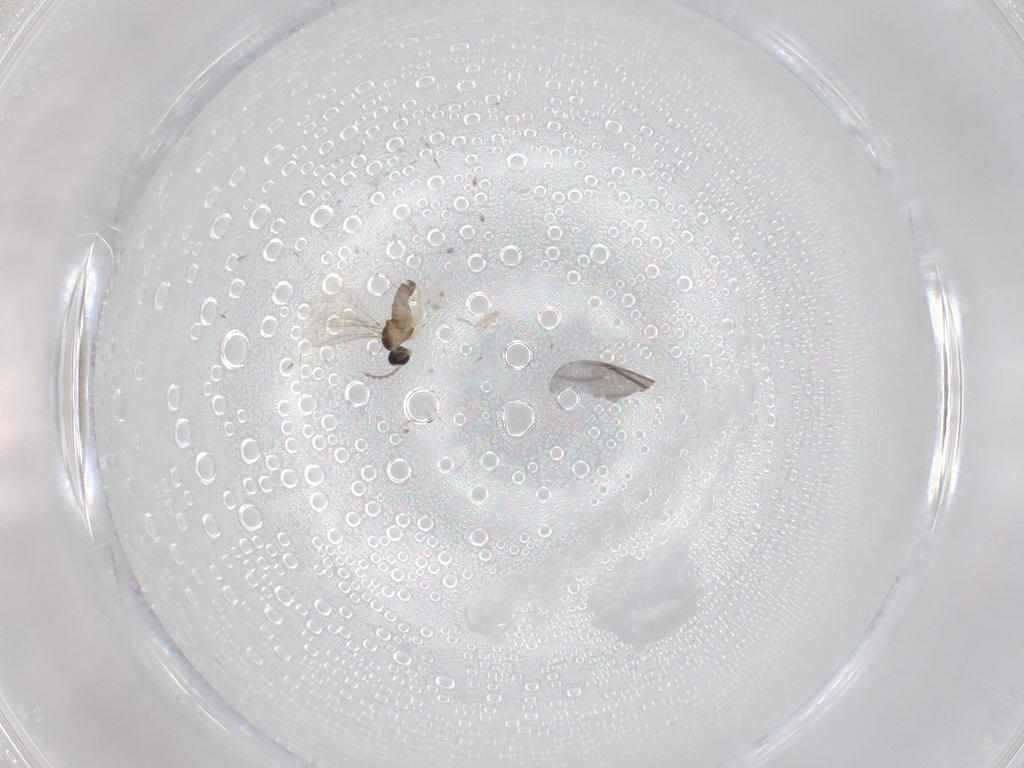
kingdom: Animalia
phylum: Arthropoda
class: Insecta
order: Diptera
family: Cecidomyiidae
